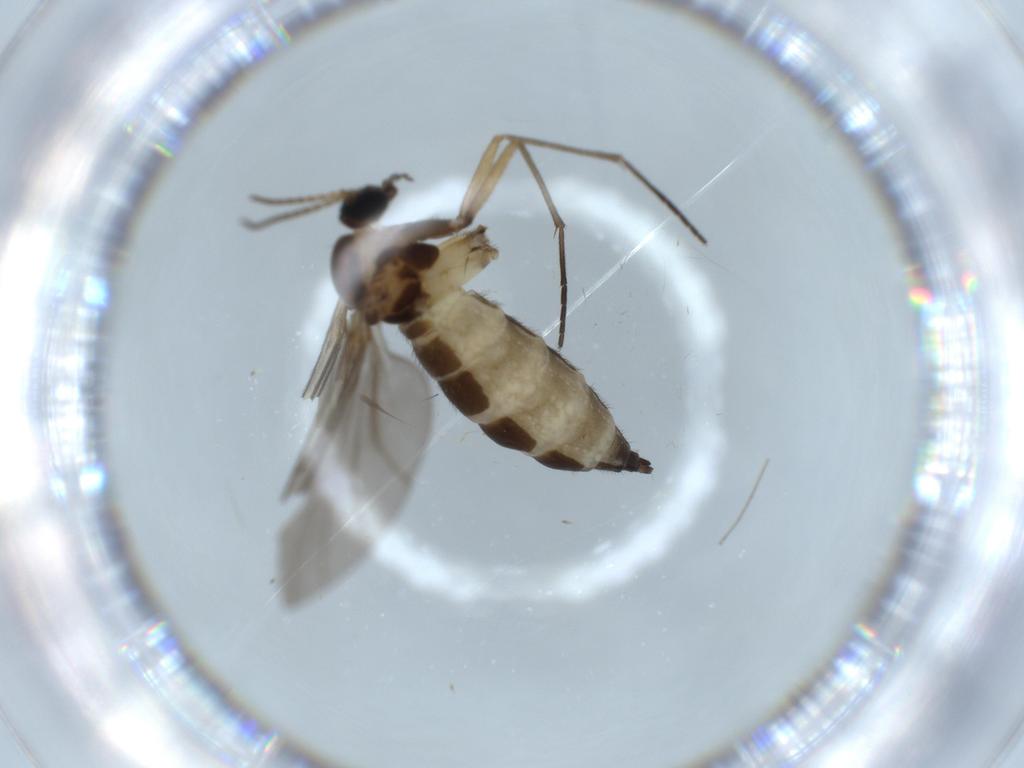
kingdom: Animalia
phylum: Arthropoda
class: Insecta
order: Diptera
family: Sciaridae
